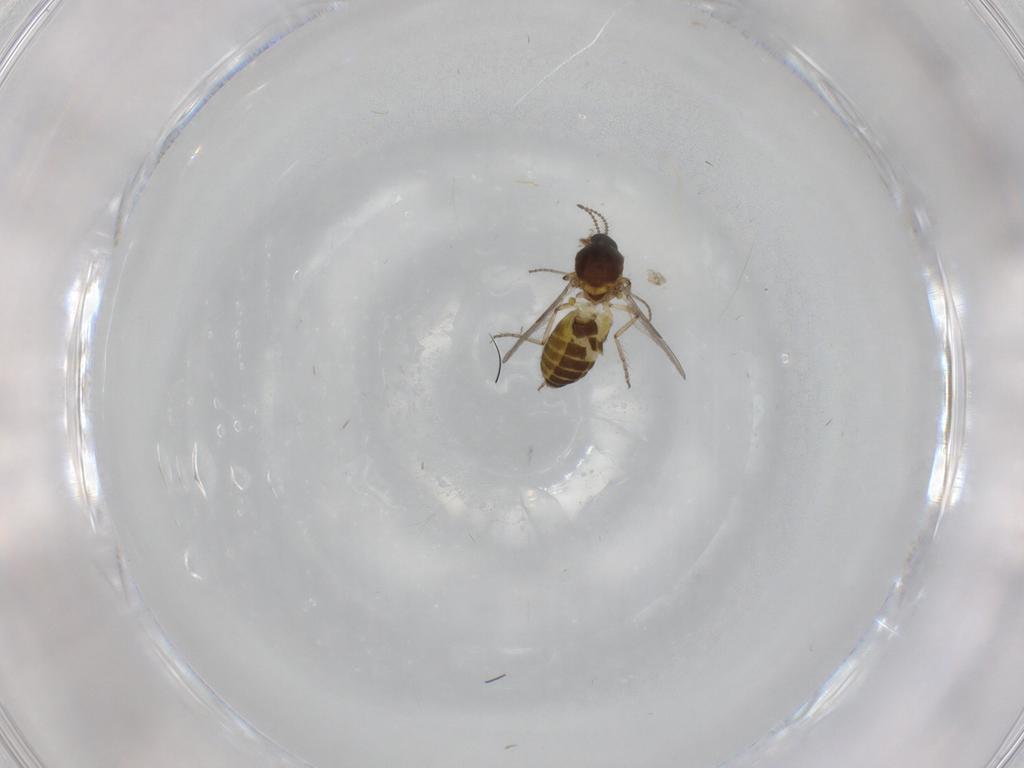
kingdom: Animalia
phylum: Arthropoda
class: Insecta
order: Diptera
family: Ceratopogonidae
